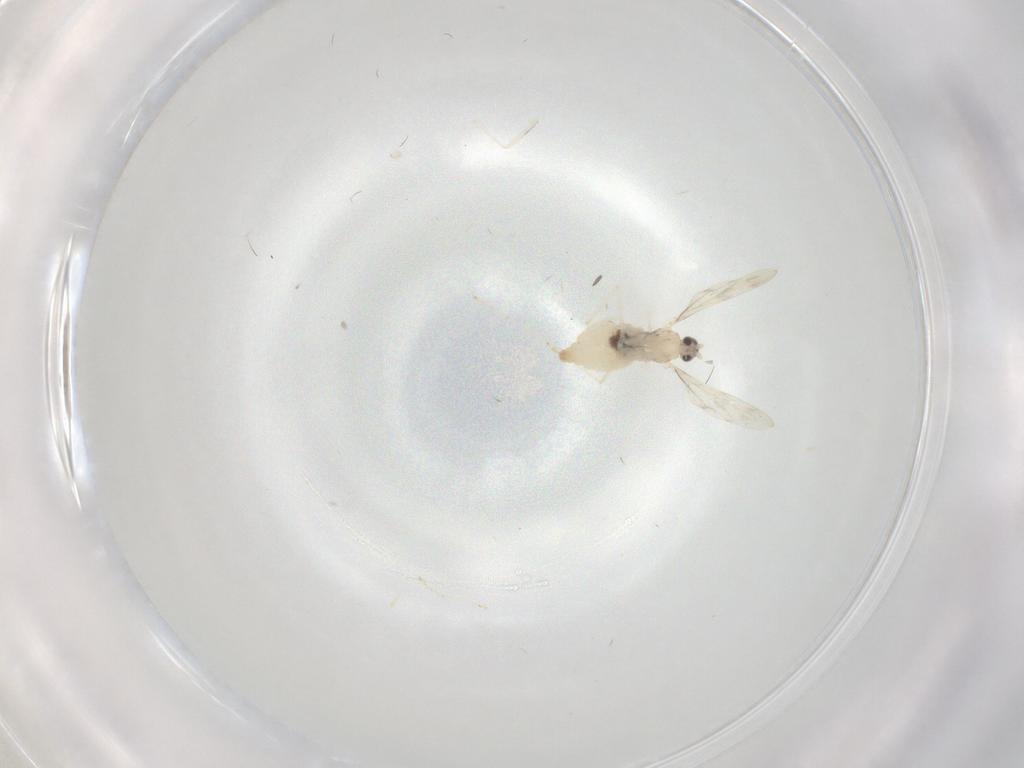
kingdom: Animalia
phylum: Arthropoda
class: Insecta
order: Diptera
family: Cecidomyiidae
